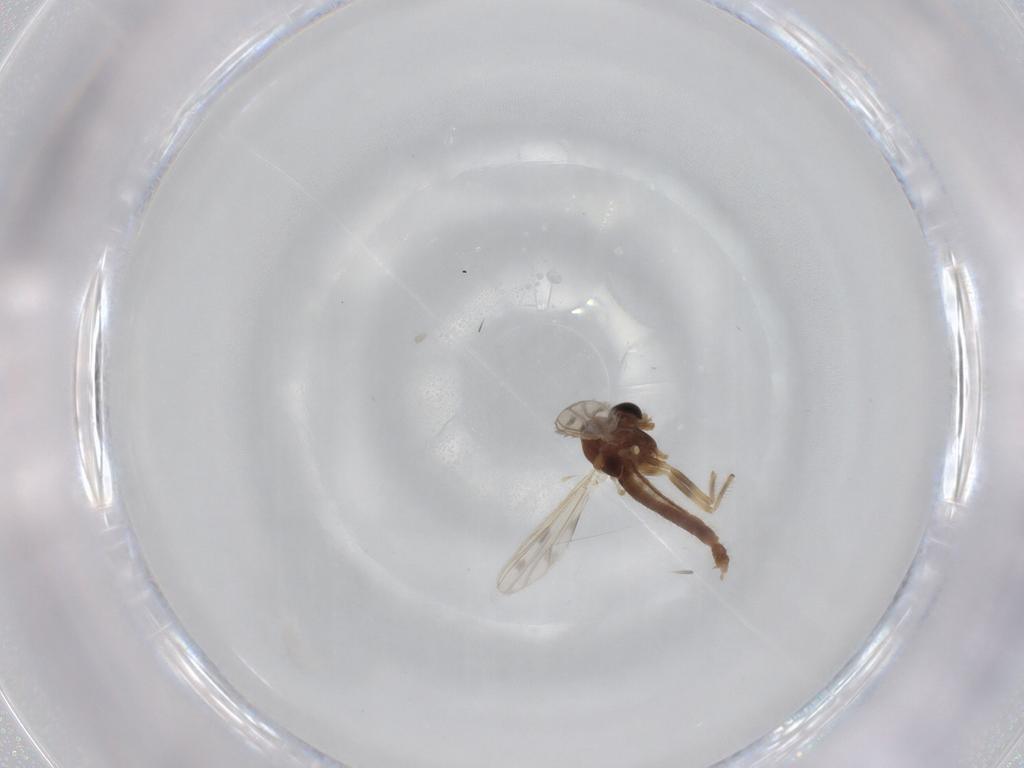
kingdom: Animalia
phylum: Arthropoda
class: Insecta
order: Diptera
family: Chironomidae
